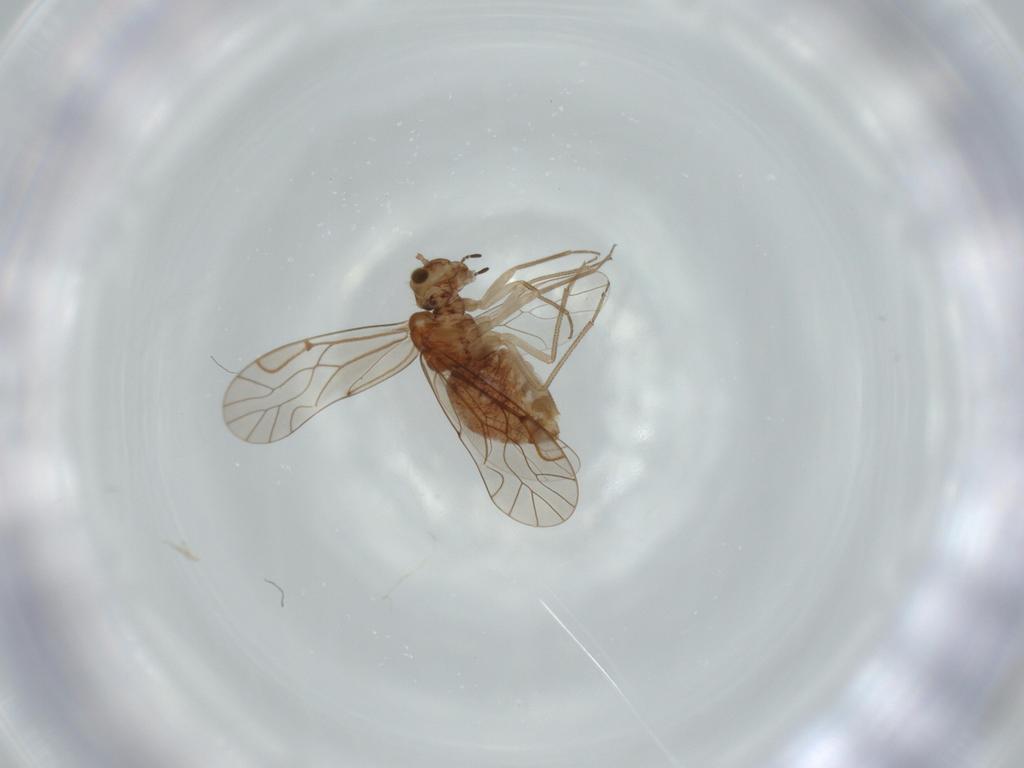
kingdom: Animalia
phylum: Arthropoda
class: Insecta
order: Psocodea
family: Lachesillidae
